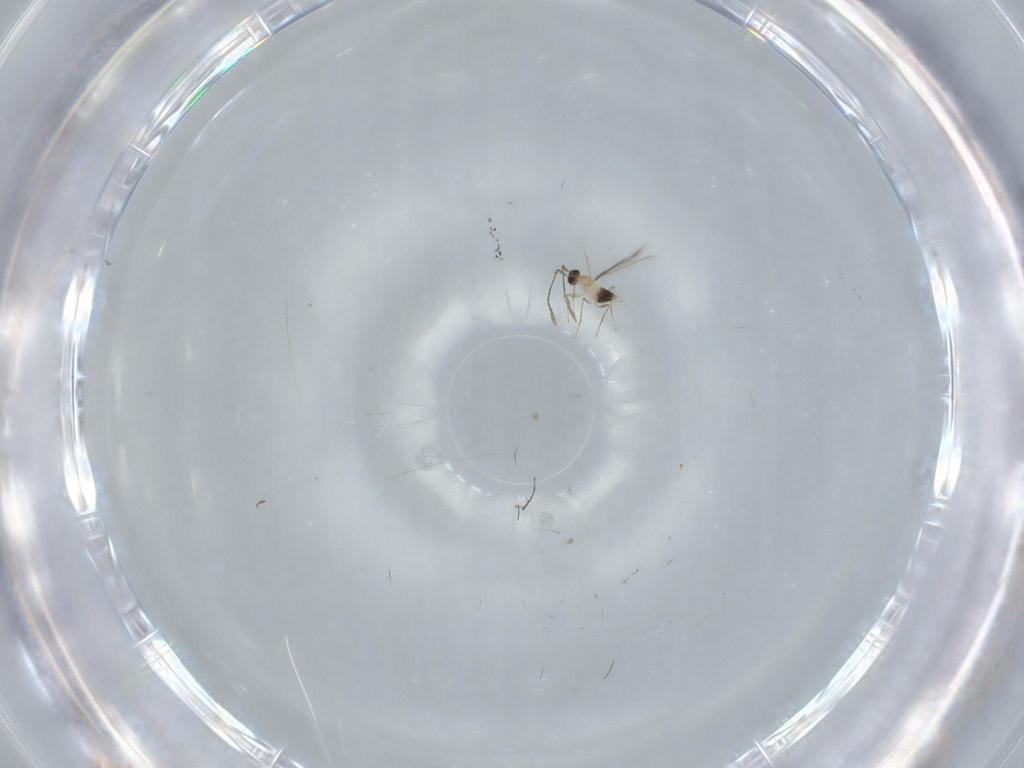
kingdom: Animalia
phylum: Arthropoda
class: Insecta
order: Hymenoptera
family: Mymaridae
